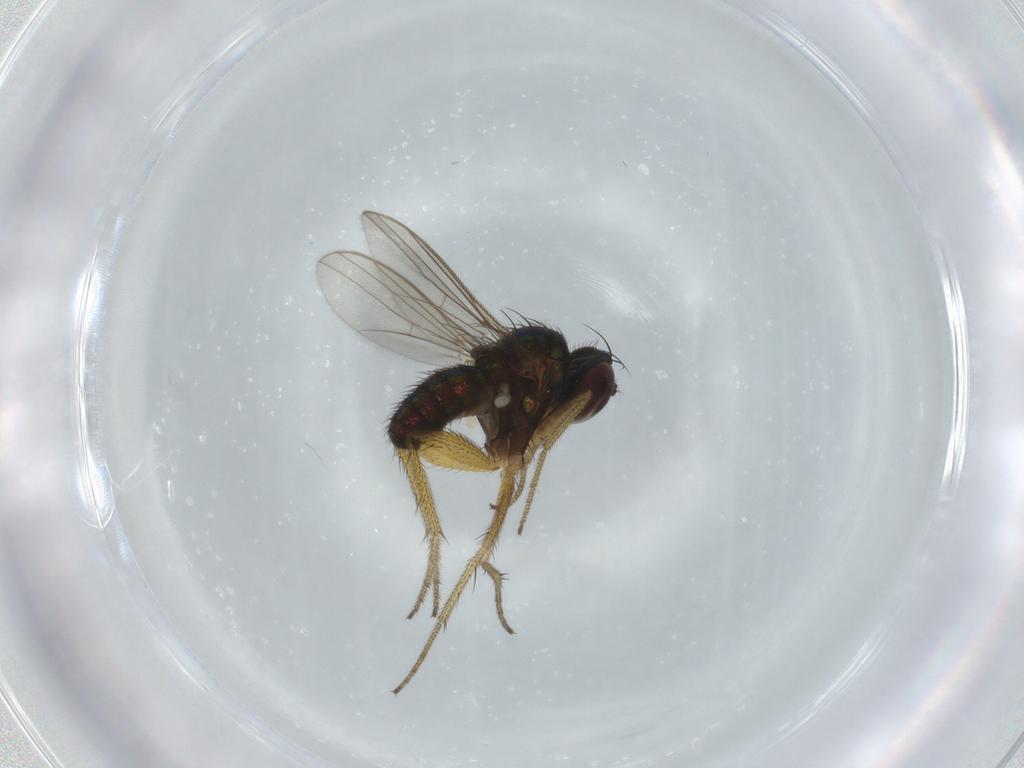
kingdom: Animalia
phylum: Arthropoda
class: Insecta
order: Diptera
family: Dolichopodidae
